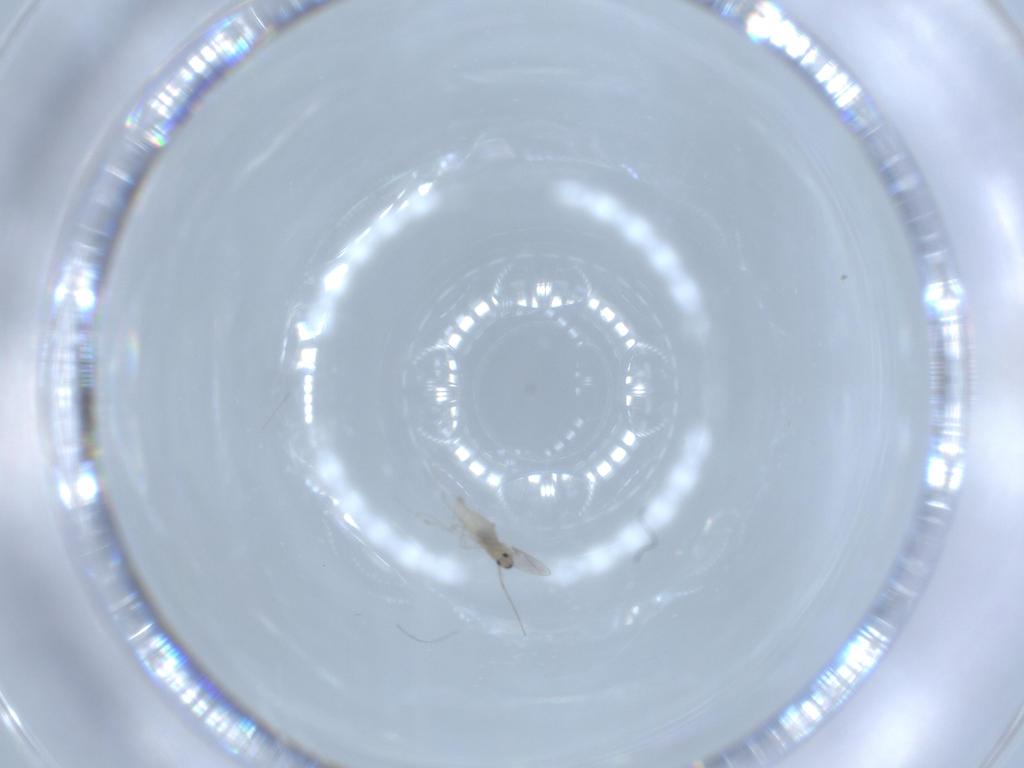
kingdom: Animalia
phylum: Arthropoda
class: Insecta
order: Diptera
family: Cecidomyiidae
